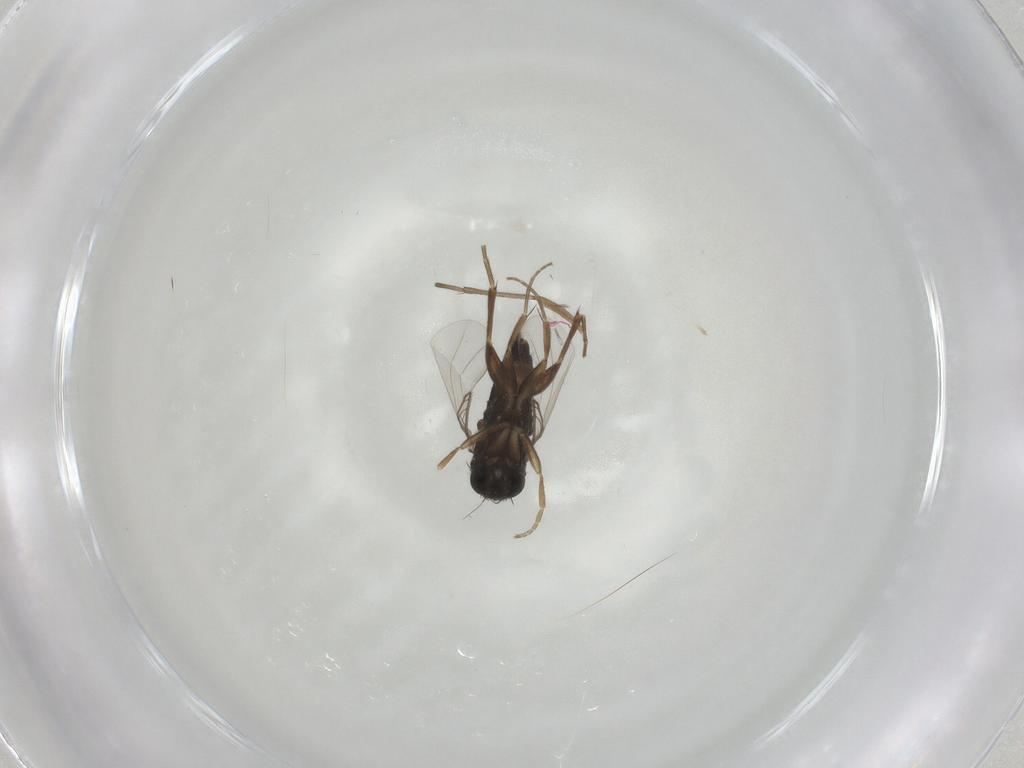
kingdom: Animalia
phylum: Arthropoda
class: Insecta
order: Diptera
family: Phoridae
